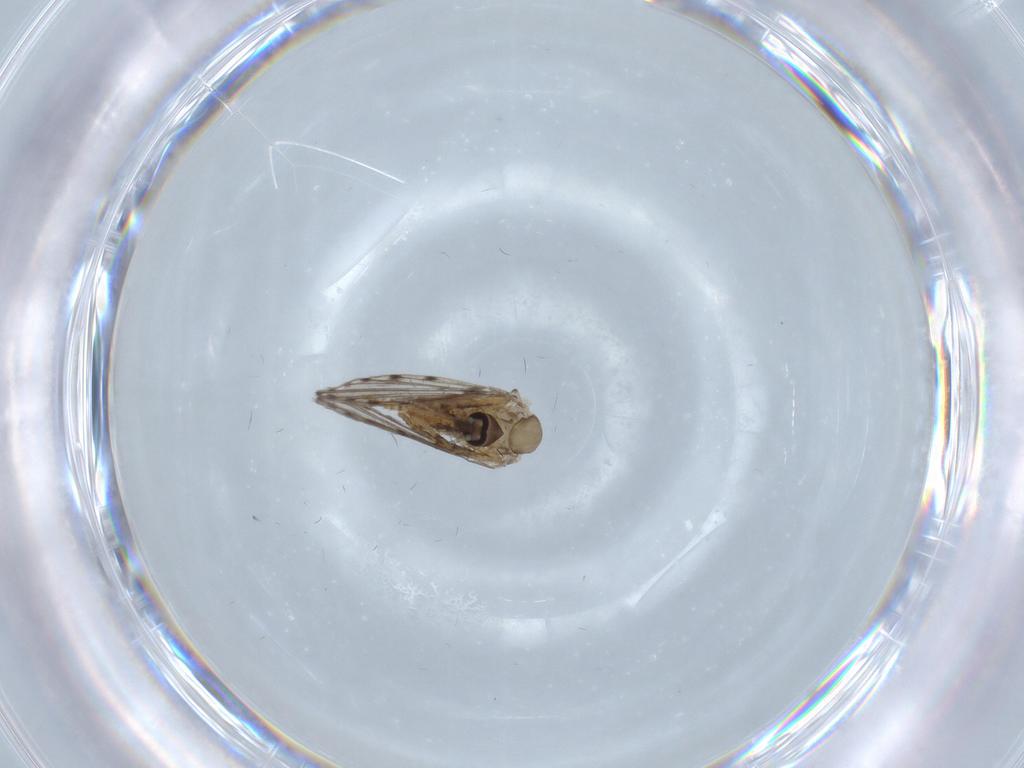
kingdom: Animalia
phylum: Arthropoda
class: Insecta
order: Diptera
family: Psychodidae
